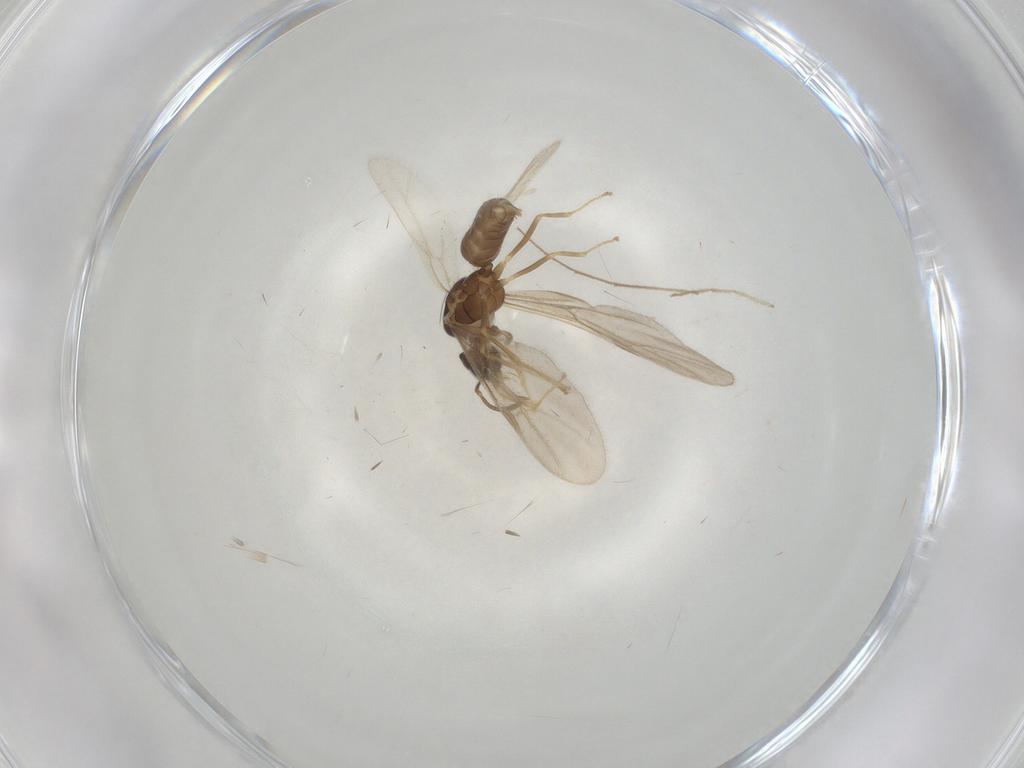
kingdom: Animalia
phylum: Arthropoda
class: Insecta
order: Hymenoptera
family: Formicidae
